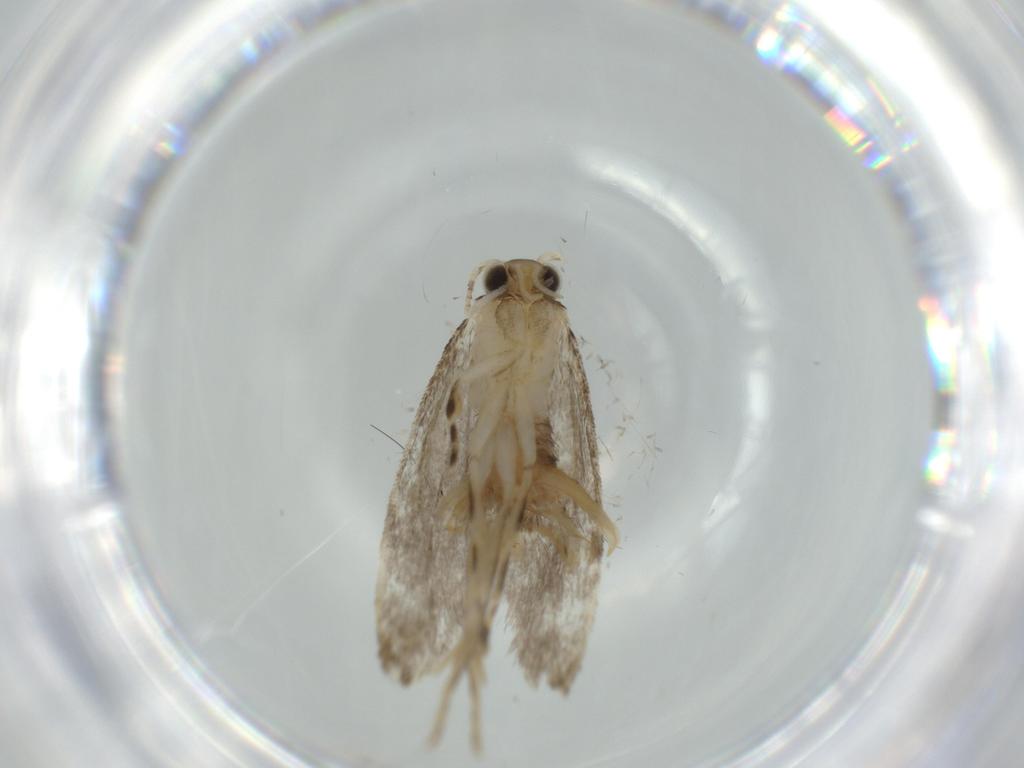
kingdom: Animalia
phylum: Arthropoda
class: Insecta
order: Lepidoptera
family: Tineidae
